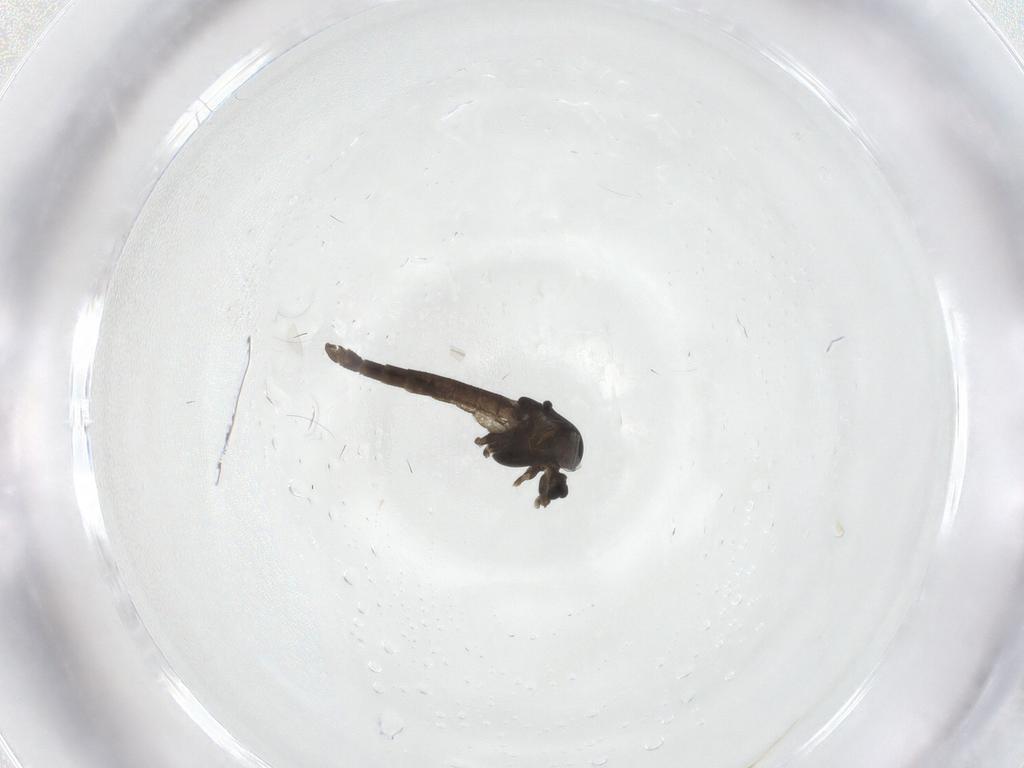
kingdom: Animalia
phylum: Arthropoda
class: Insecta
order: Diptera
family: Chironomidae
